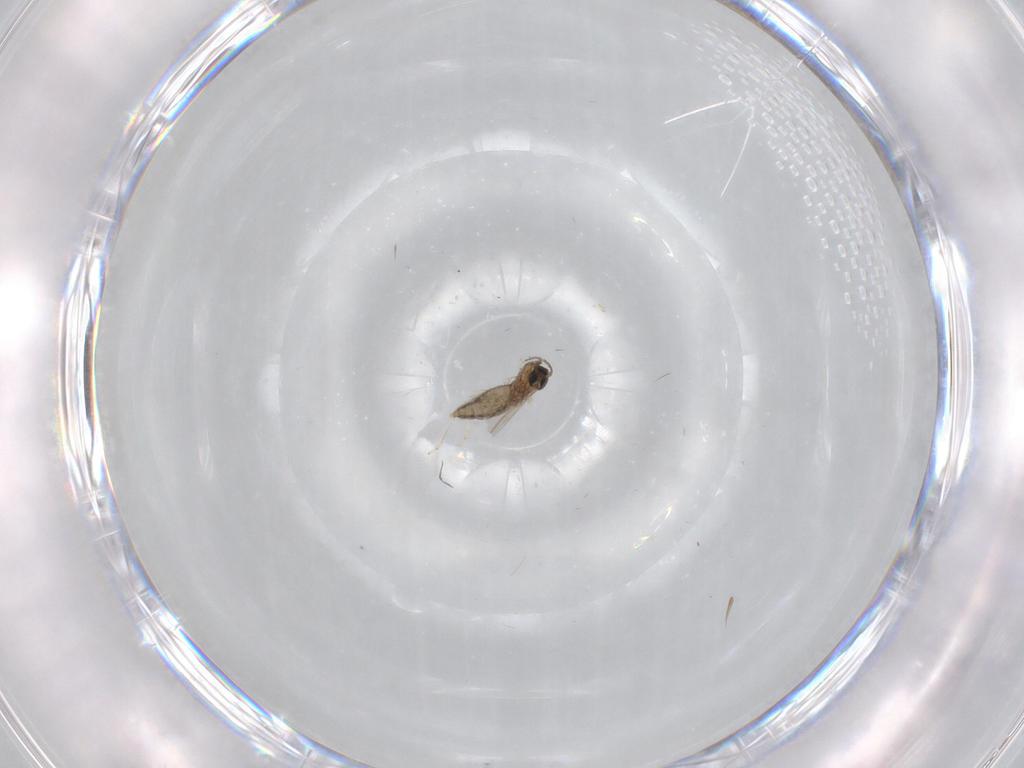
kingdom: Animalia
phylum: Arthropoda
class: Insecta
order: Diptera
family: Cecidomyiidae
